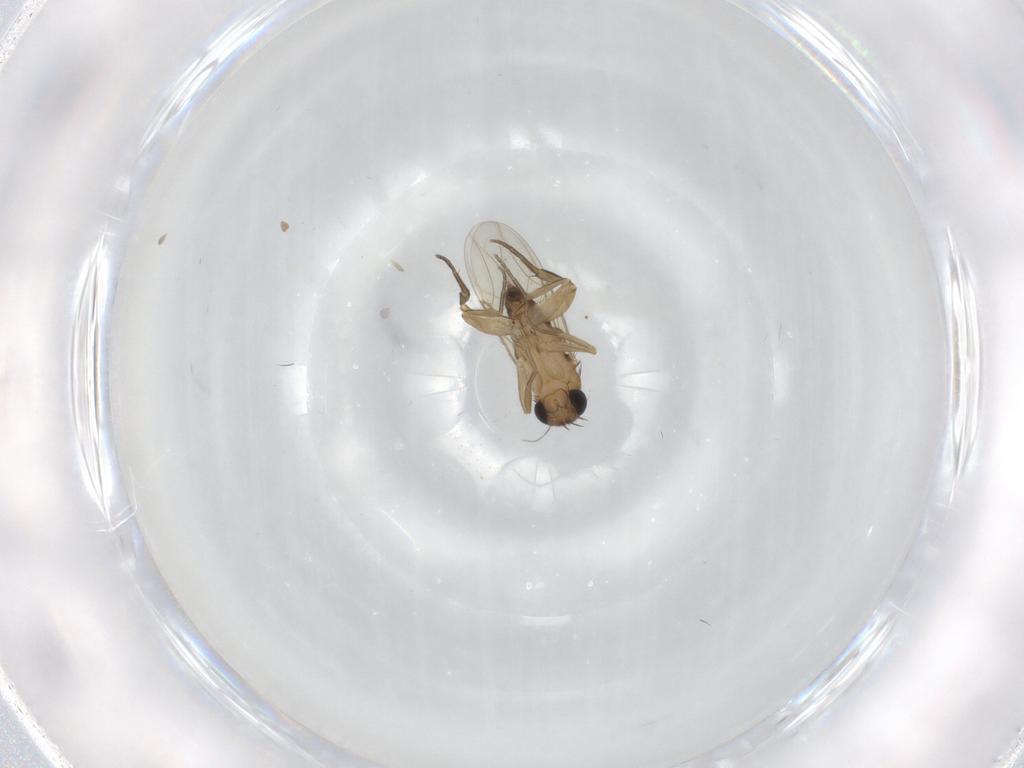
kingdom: Animalia
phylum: Arthropoda
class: Insecta
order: Diptera
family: Phoridae
